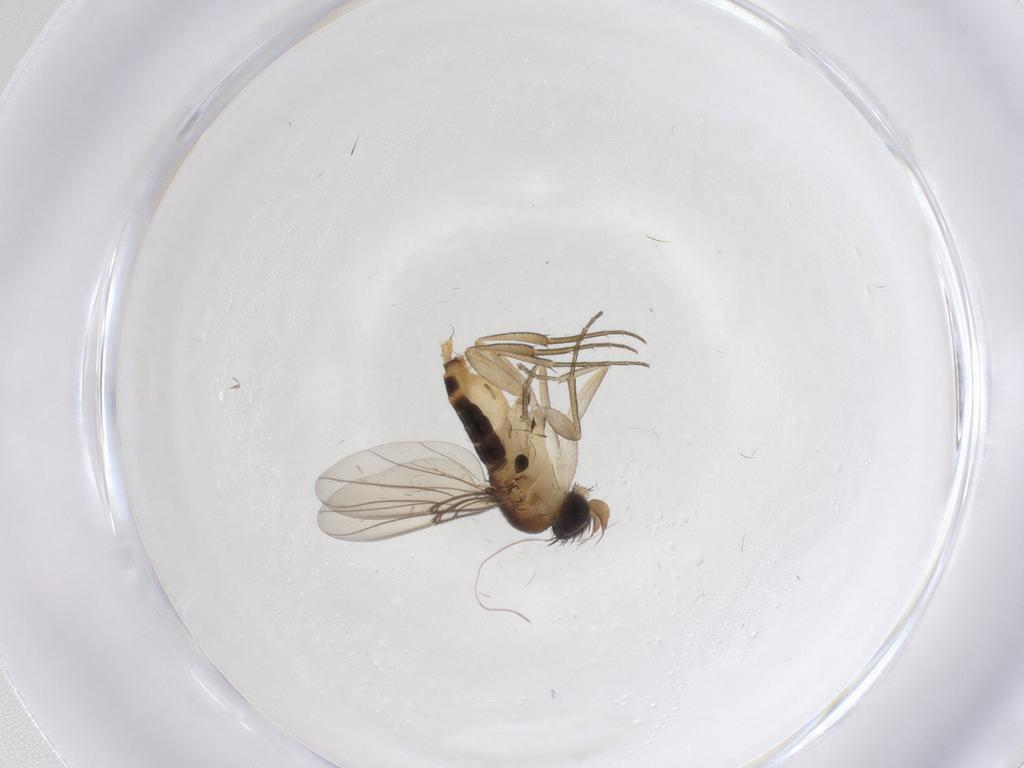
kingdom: Animalia
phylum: Arthropoda
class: Insecta
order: Diptera
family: Phoridae
